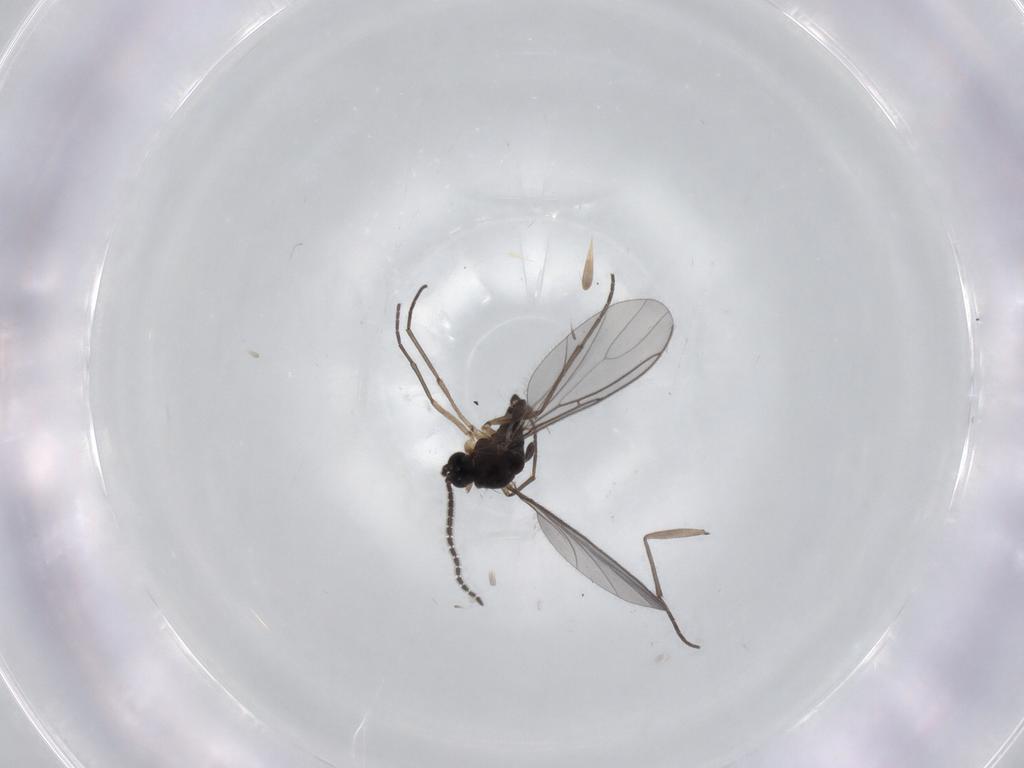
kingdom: Animalia
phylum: Arthropoda
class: Insecta
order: Diptera
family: Sciaridae
